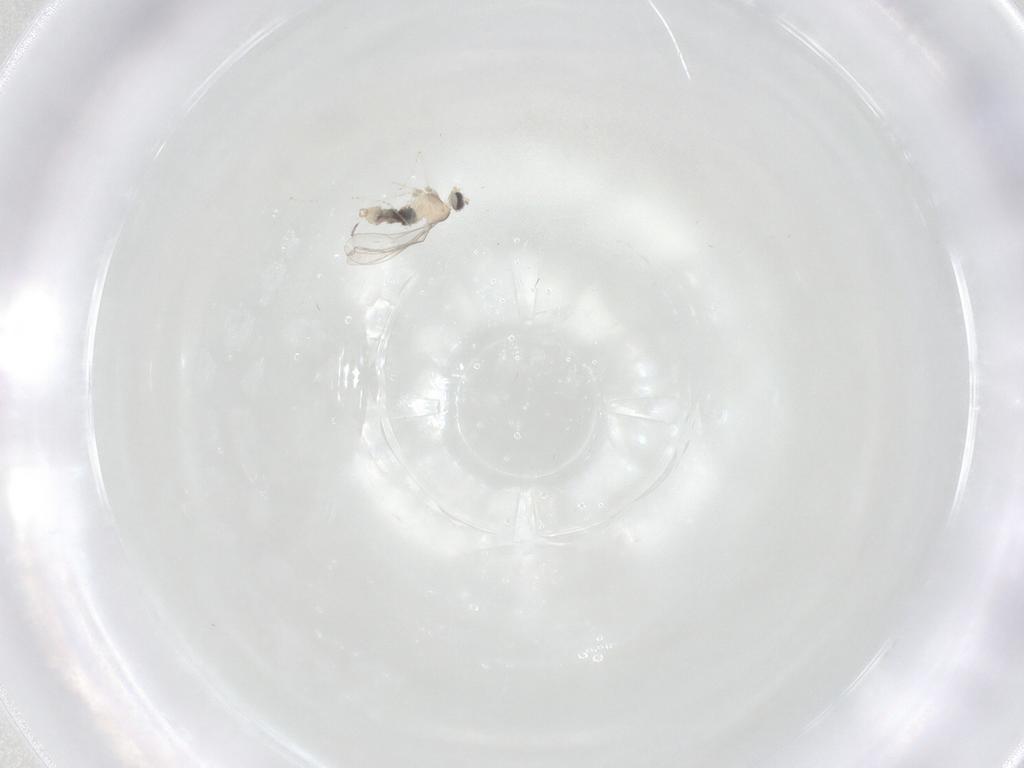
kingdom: Animalia
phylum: Arthropoda
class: Insecta
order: Diptera
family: Cecidomyiidae
